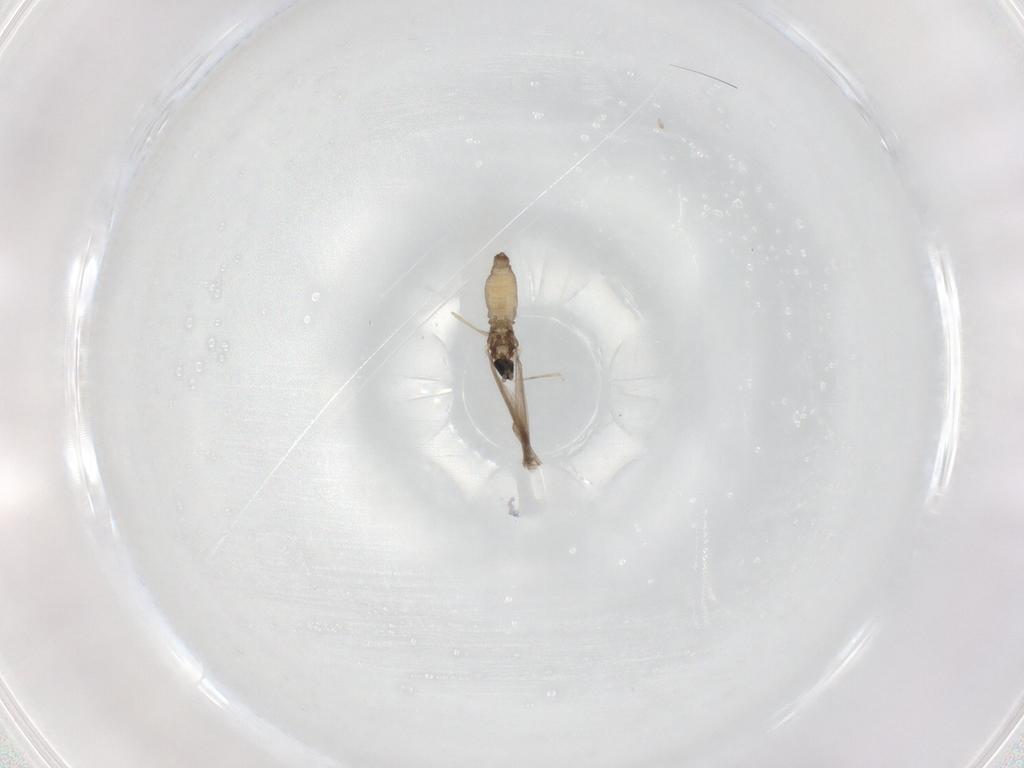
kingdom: Animalia
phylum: Arthropoda
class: Insecta
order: Diptera
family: Cecidomyiidae
